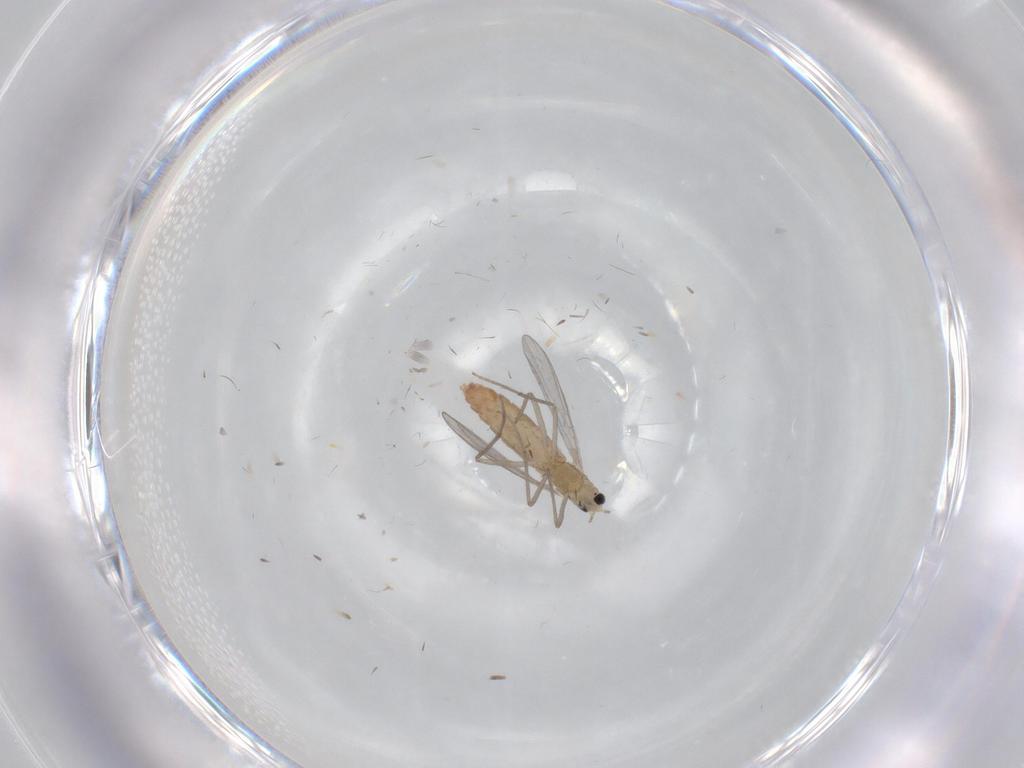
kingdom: Animalia
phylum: Arthropoda
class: Insecta
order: Diptera
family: Chironomidae
